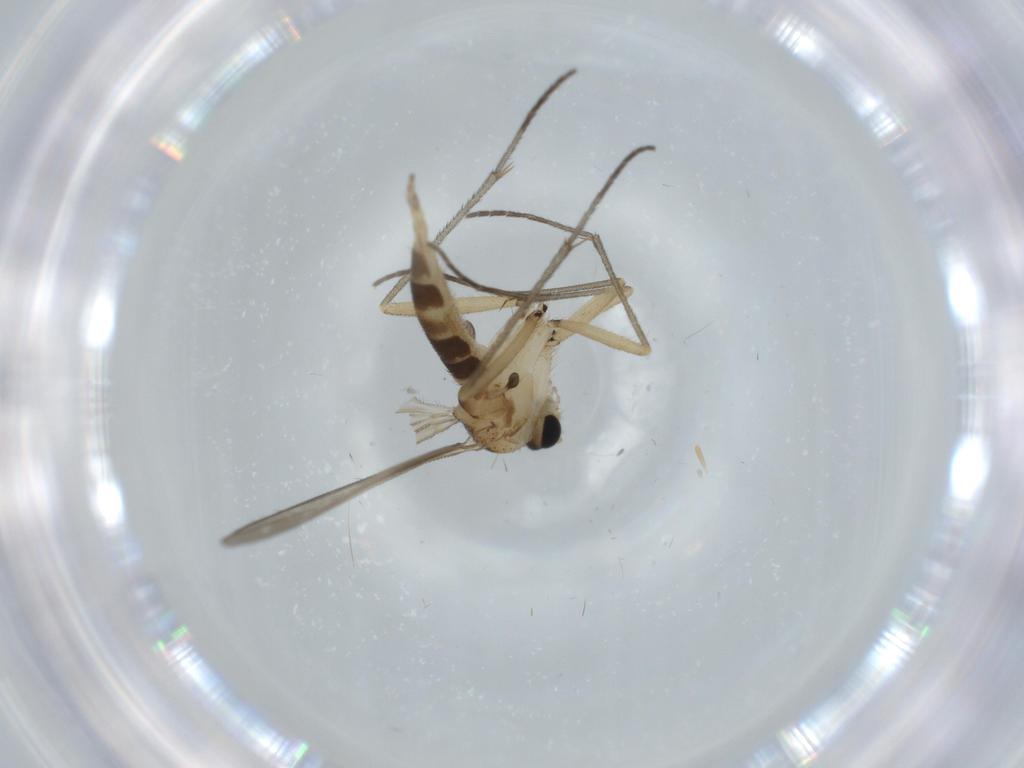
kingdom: Animalia
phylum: Arthropoda
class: Insecta
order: Diptera
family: Sciaridae
